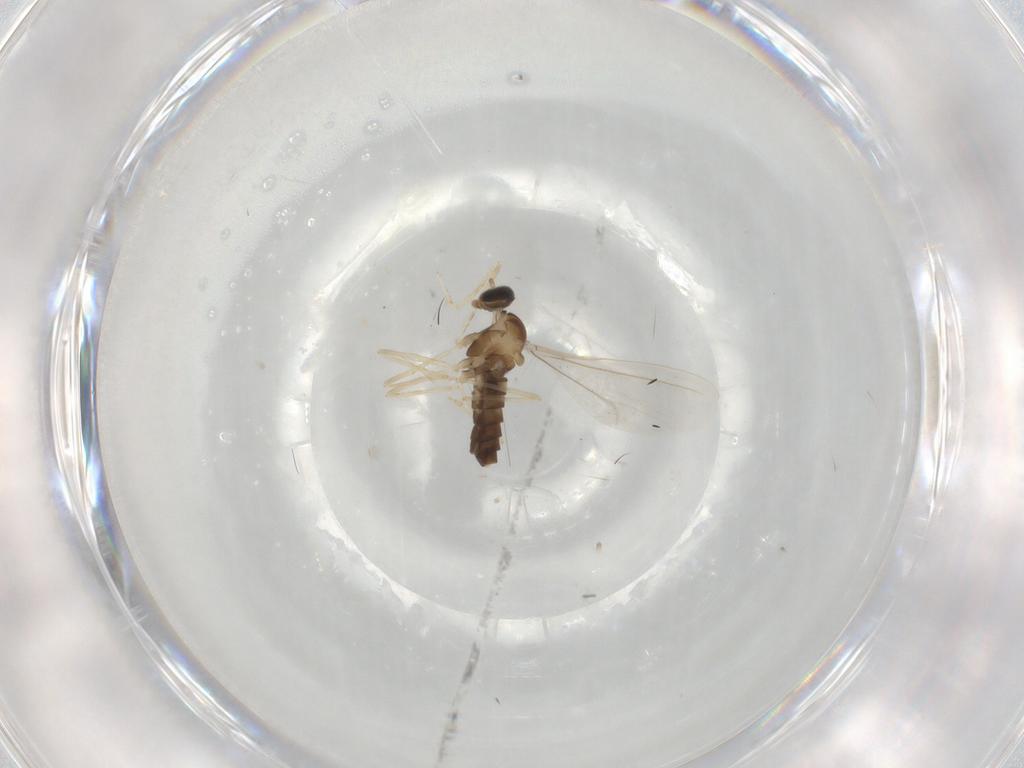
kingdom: Animalia
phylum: Arthropoda
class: Insecta
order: Diptera
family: Cecidomyiidae
